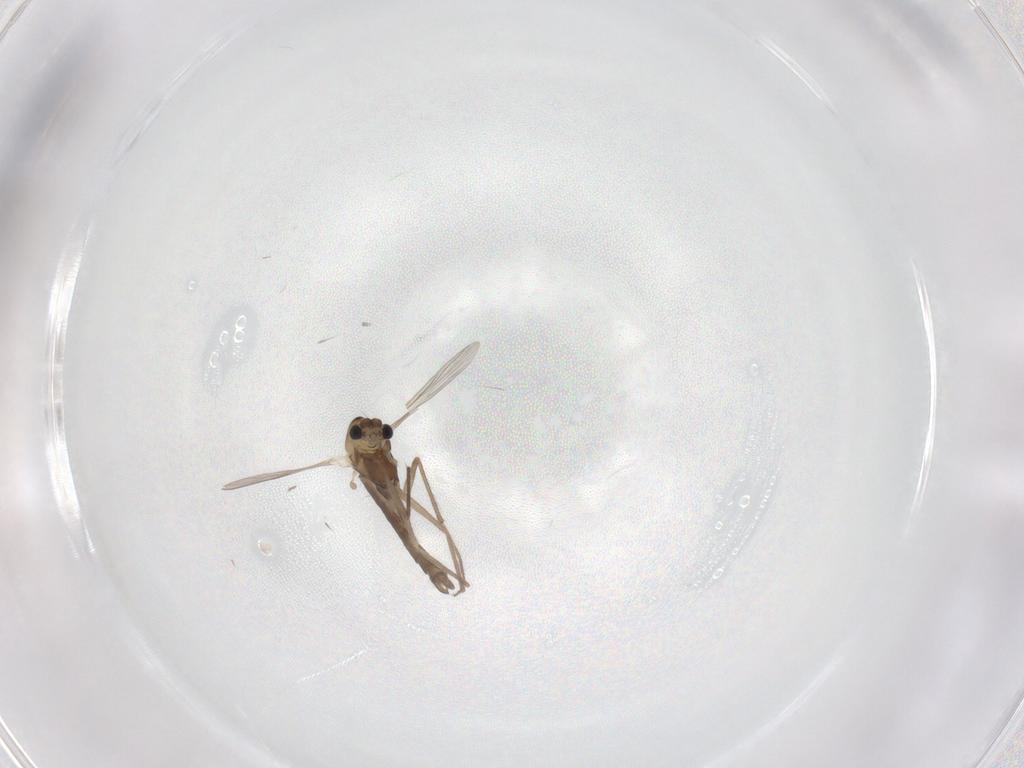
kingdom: Animalia
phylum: Arthropoda
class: Insecta
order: Diptera
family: Chironomidae
